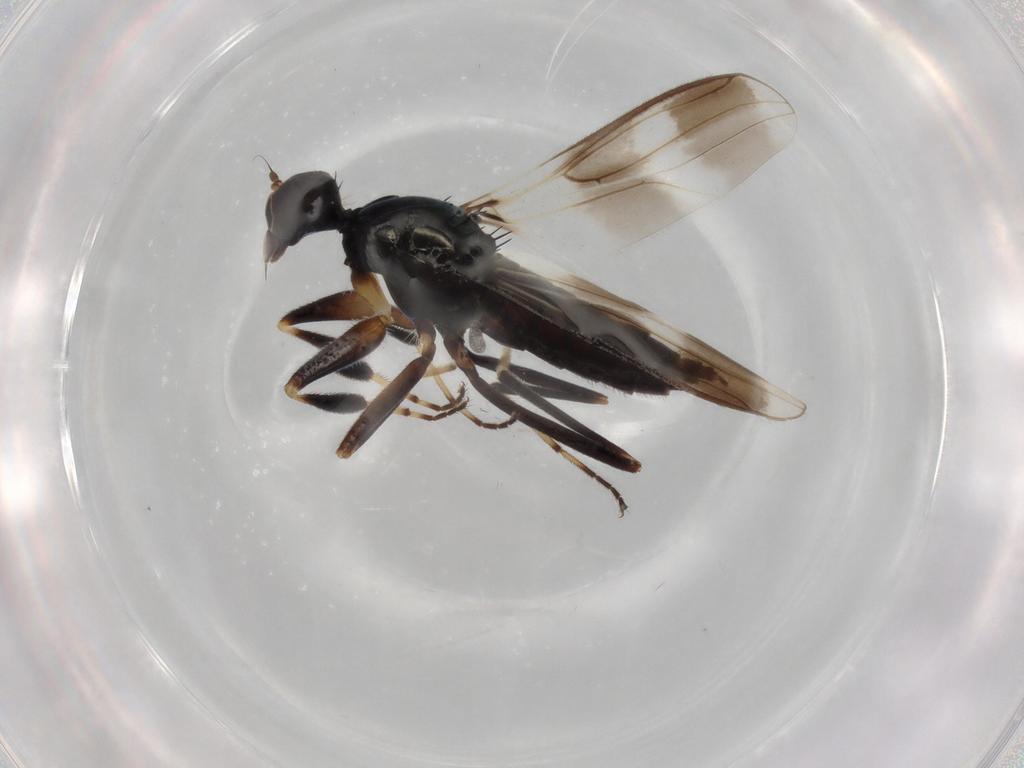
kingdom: Animalia
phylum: Arthropoda
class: Insecta
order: Diptera
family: Hybotidae
